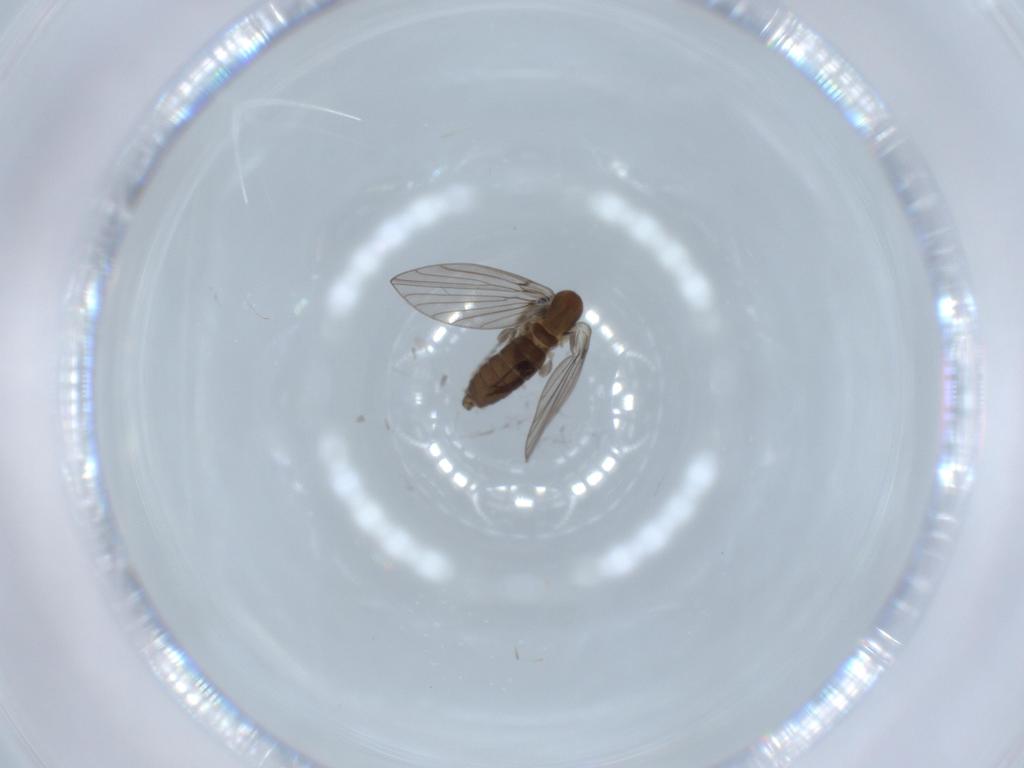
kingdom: Animalia
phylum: Arthropoda
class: Insecta
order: Diptera
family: Psychodidae
